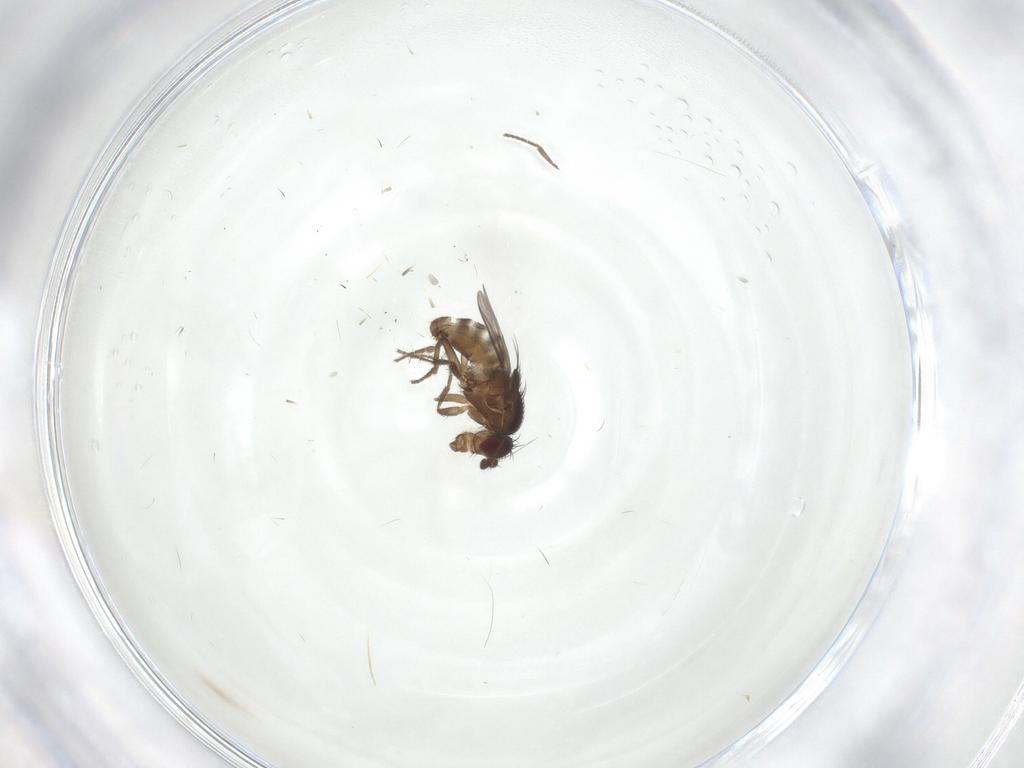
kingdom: Animalia
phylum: Arthropoda
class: Insecta
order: Diptera
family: Sphaeroceridae
